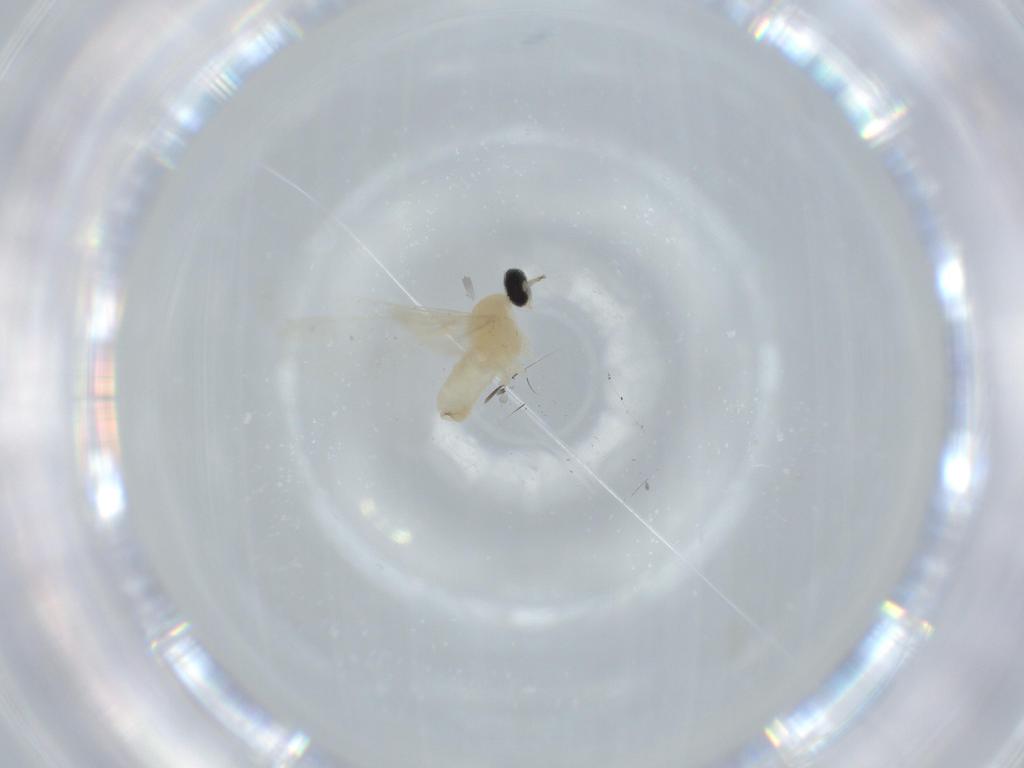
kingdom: Animalia
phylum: Arthropoda
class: Insecta
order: Diptera
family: Cecidomyiidae
